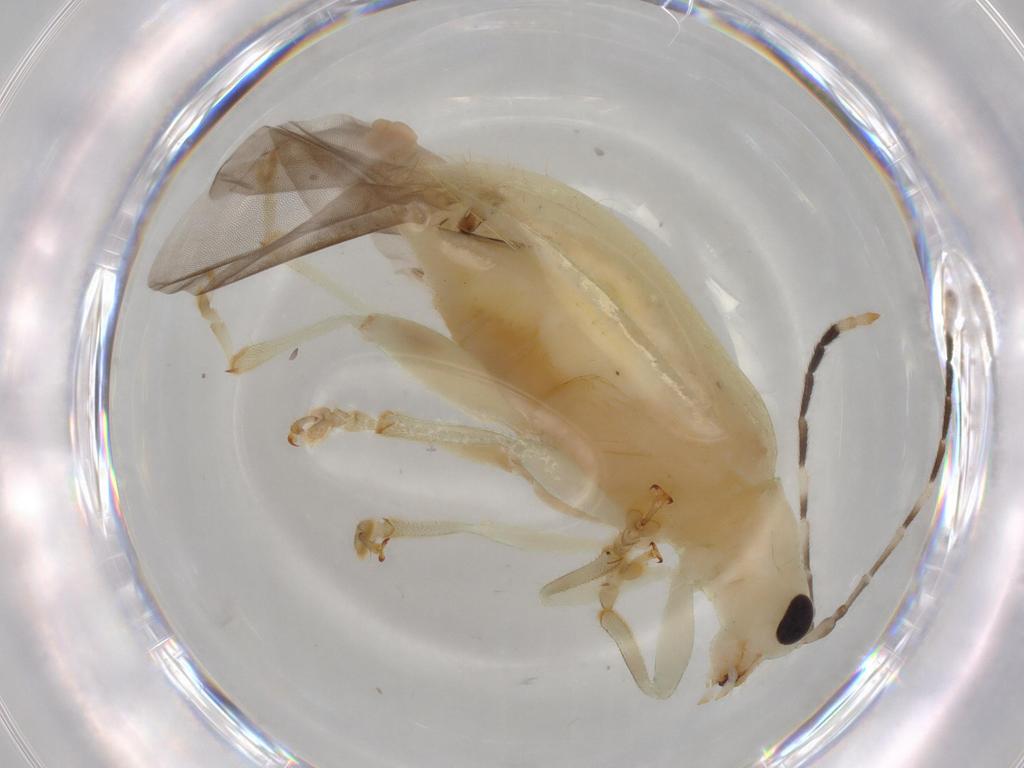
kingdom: Animalia
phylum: Arthropoda
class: Insecta
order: Coleoptera
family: Chrysomelidae
